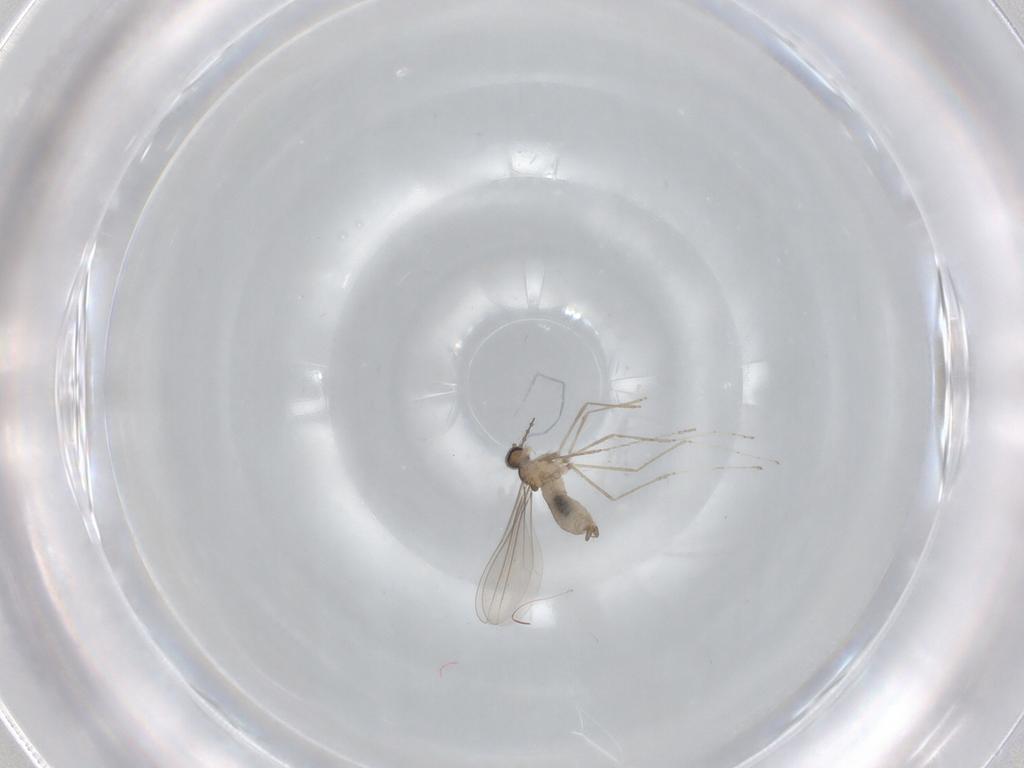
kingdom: Animalia
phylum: Arthropoda
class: Insecta
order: Diptera
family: Cecidomyiidae
